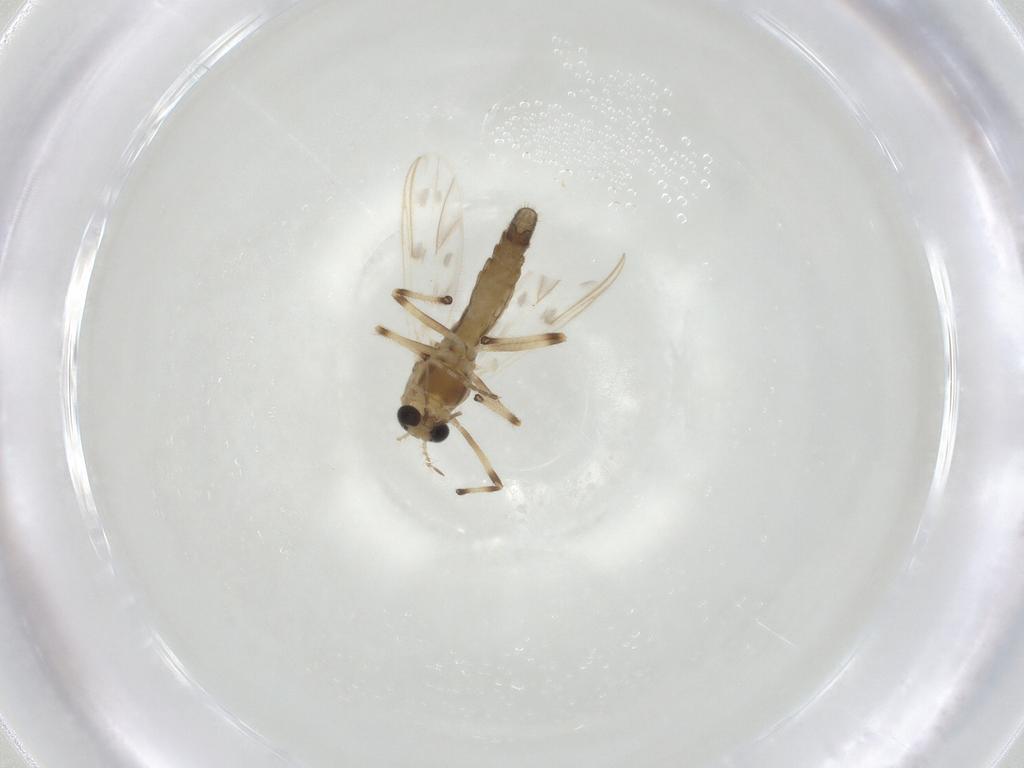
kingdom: Animalia
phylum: Arthropoda
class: Insecta
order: Diptera
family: Chironomidae
